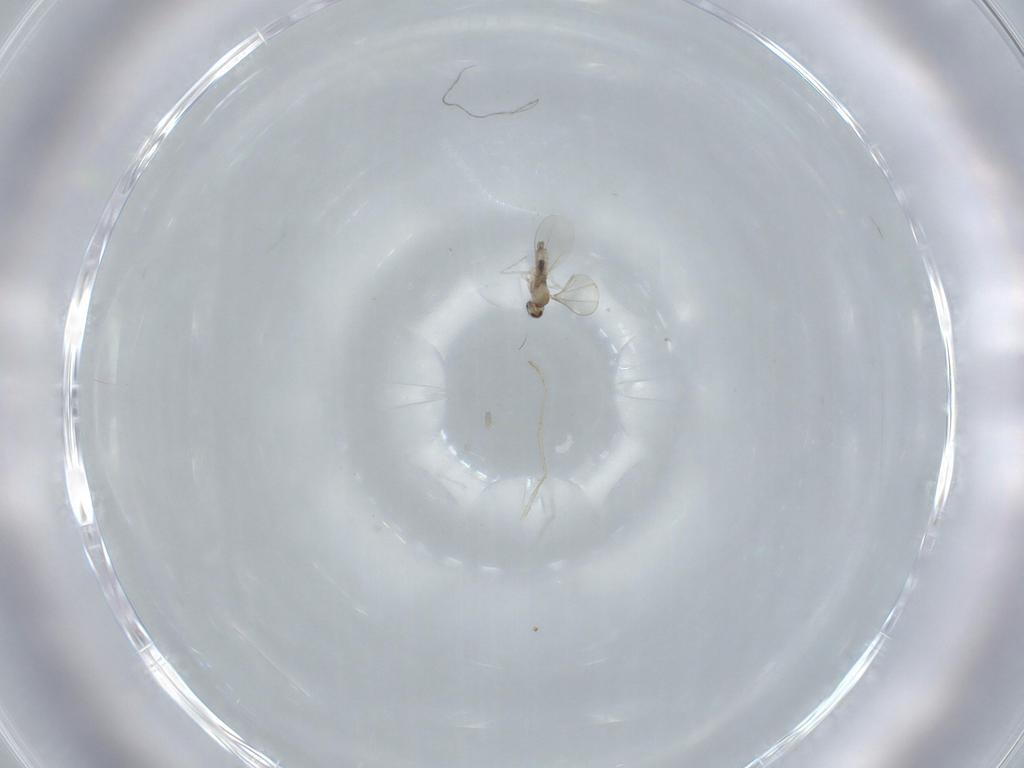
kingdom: Animalia
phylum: Arthropoda
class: Insecta
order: Diptera
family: Cecidomyiidae
